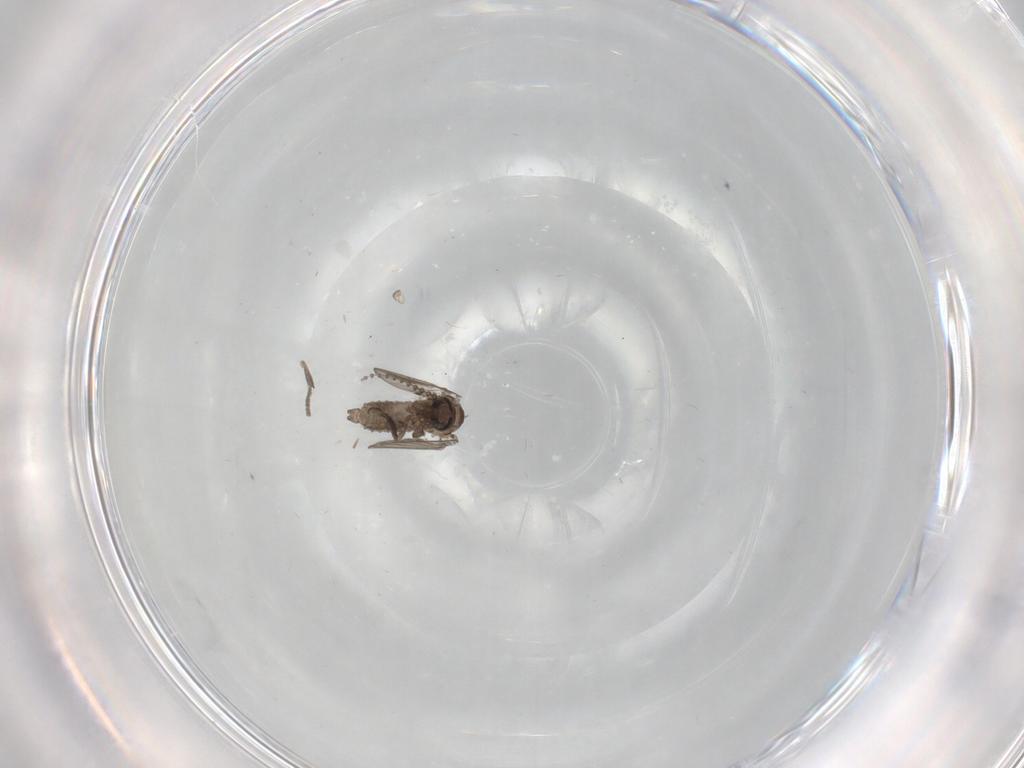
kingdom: Animalia
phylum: Arthropoda
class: Insecta
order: Diptera
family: Psychodidae
